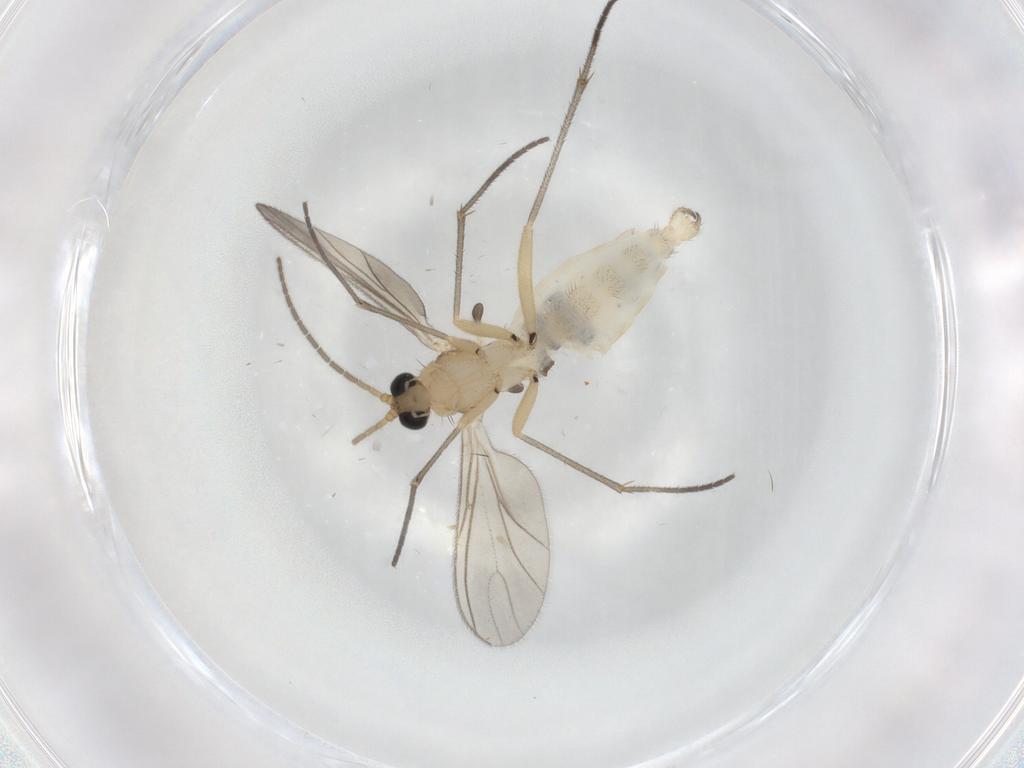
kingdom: Animalia
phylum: Arthropoda
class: Insecta
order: Diptera
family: Sciaridae
